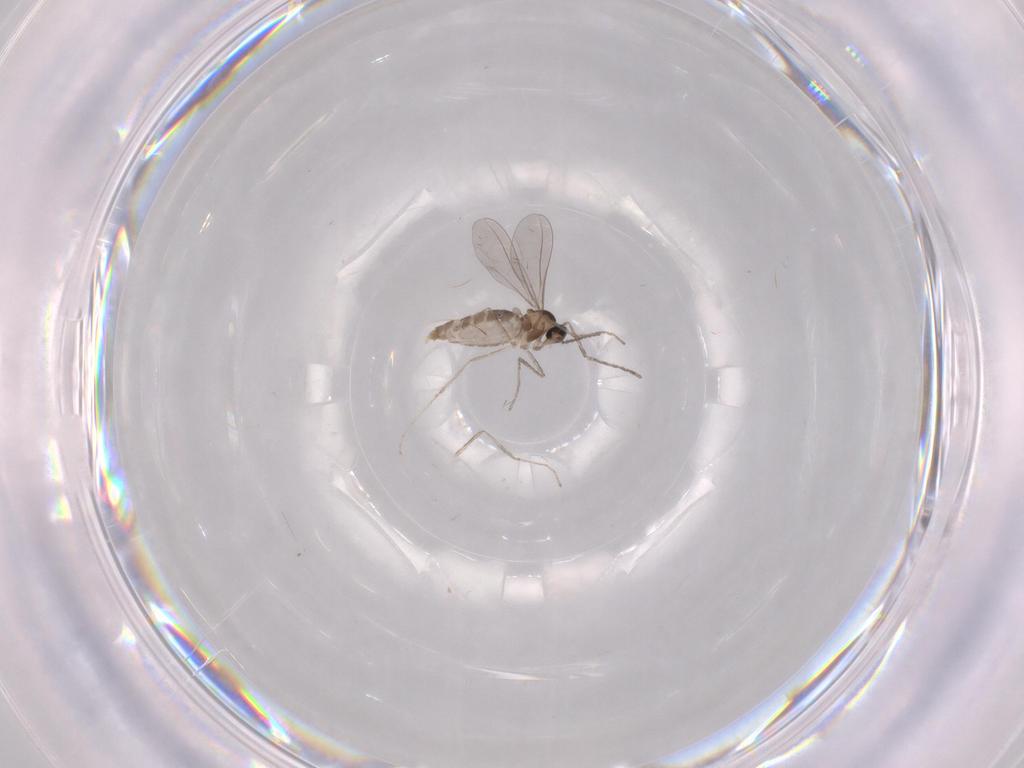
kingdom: Animalia
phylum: Arthropoda
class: Insecta
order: Diptera
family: Cecidomyiidae
